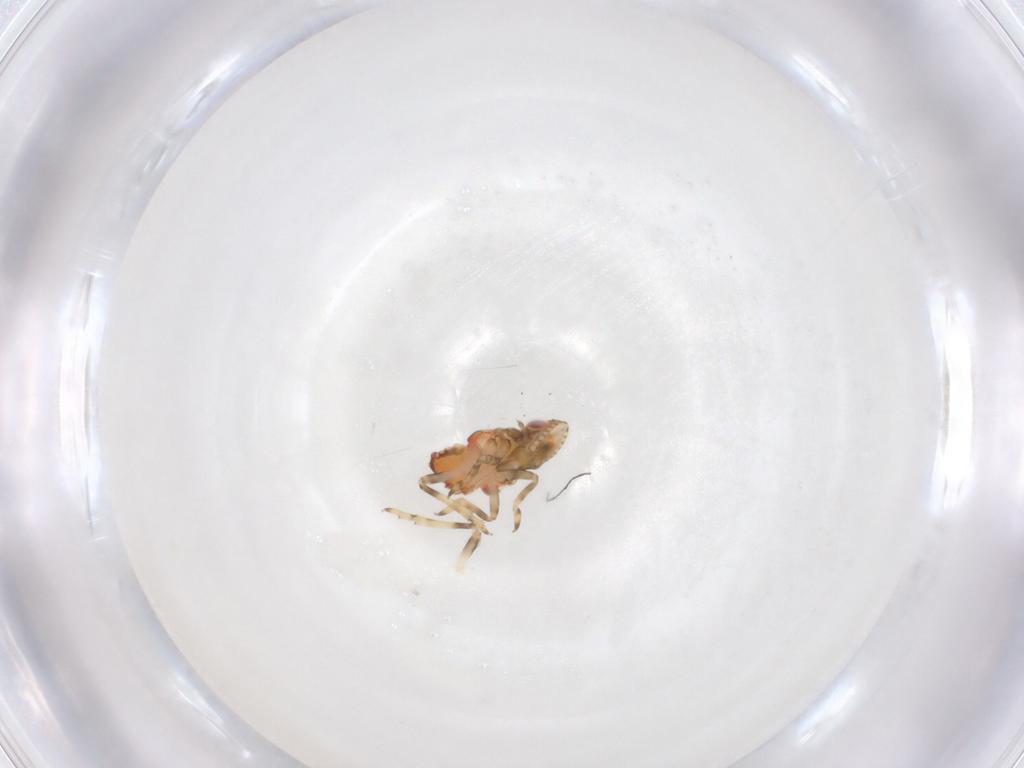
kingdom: Animalia
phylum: Arthropoda
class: Insecta
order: Hemiptera
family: Tropiduchidae
